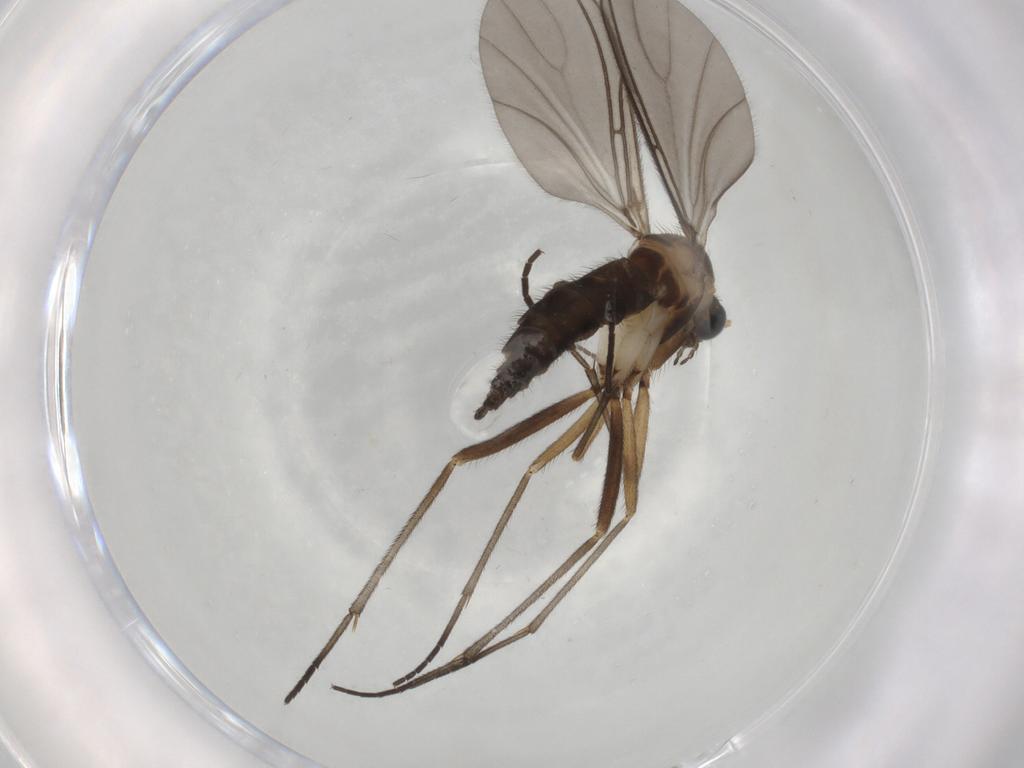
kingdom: Animalia
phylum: Arthropoda
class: Insecta
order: Diptera
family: Sciaridae
